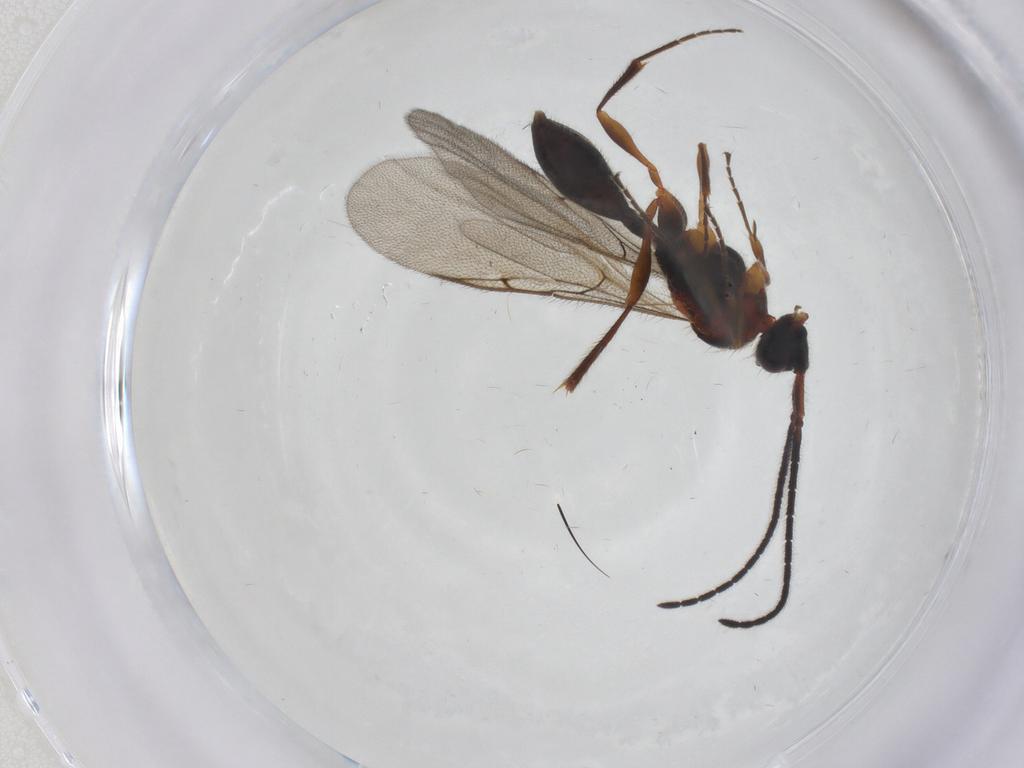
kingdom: Animalia
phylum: Arthropoda
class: Insecta
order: Hymenoptera
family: Diapriidae
